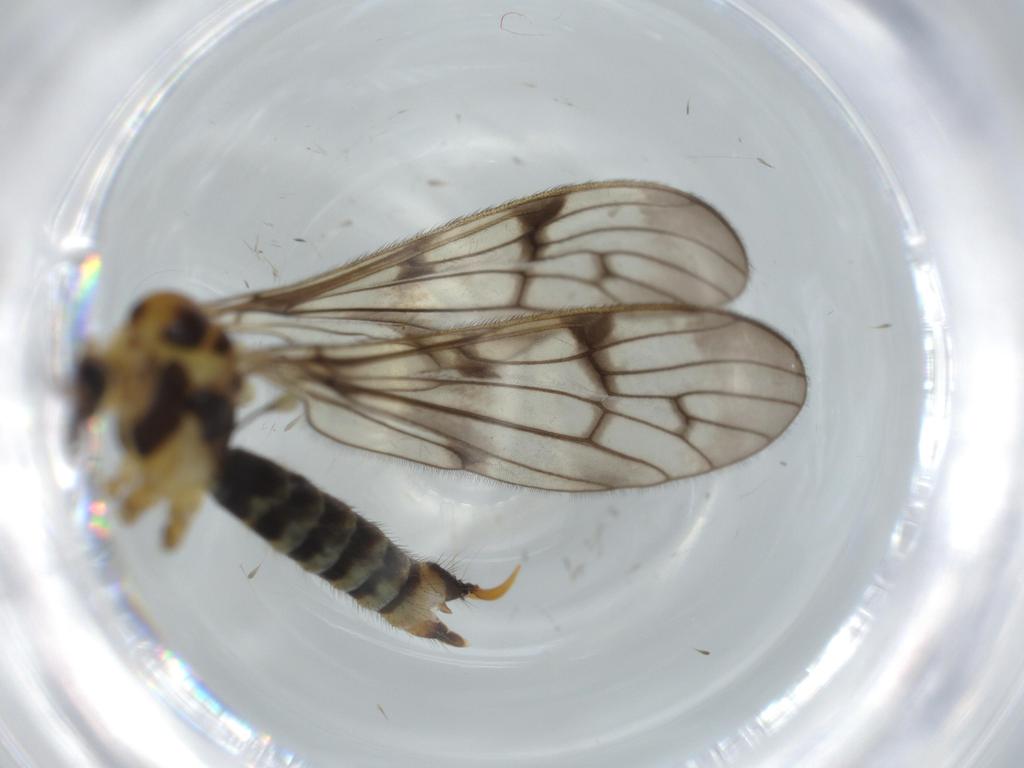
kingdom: Animalia
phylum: Arthropoda
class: Insecta
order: Diptera
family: Limoniidae
